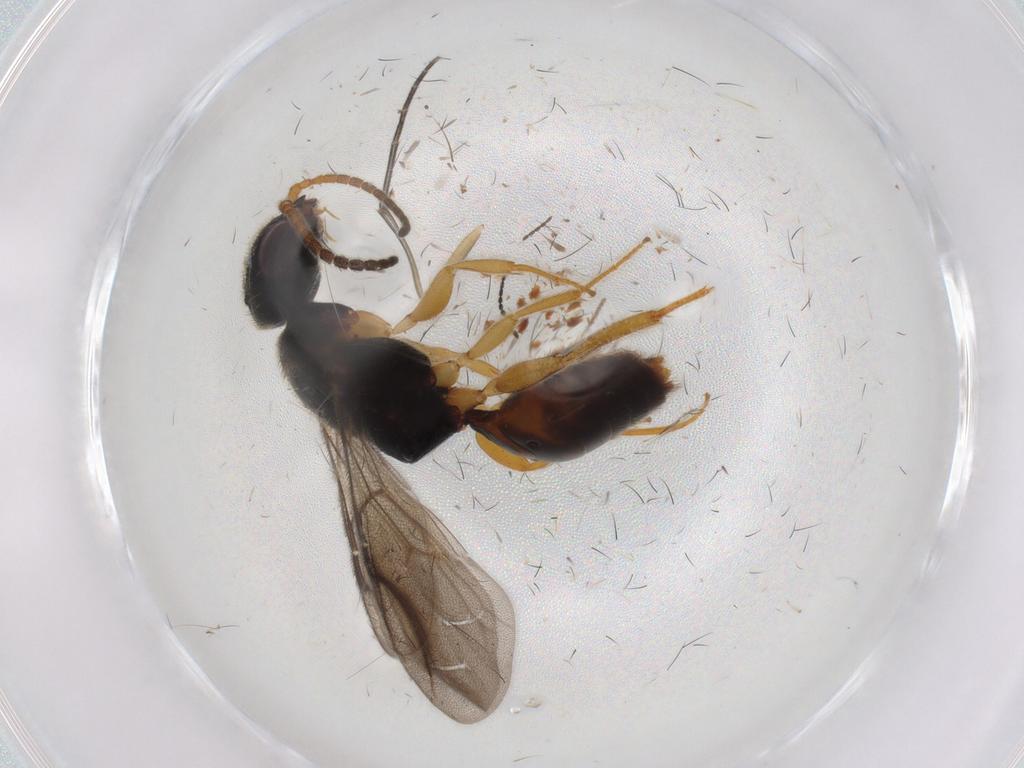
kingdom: Animalia
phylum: Arthropoda
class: Insecta
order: Hymenoptera
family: Bethylidae
